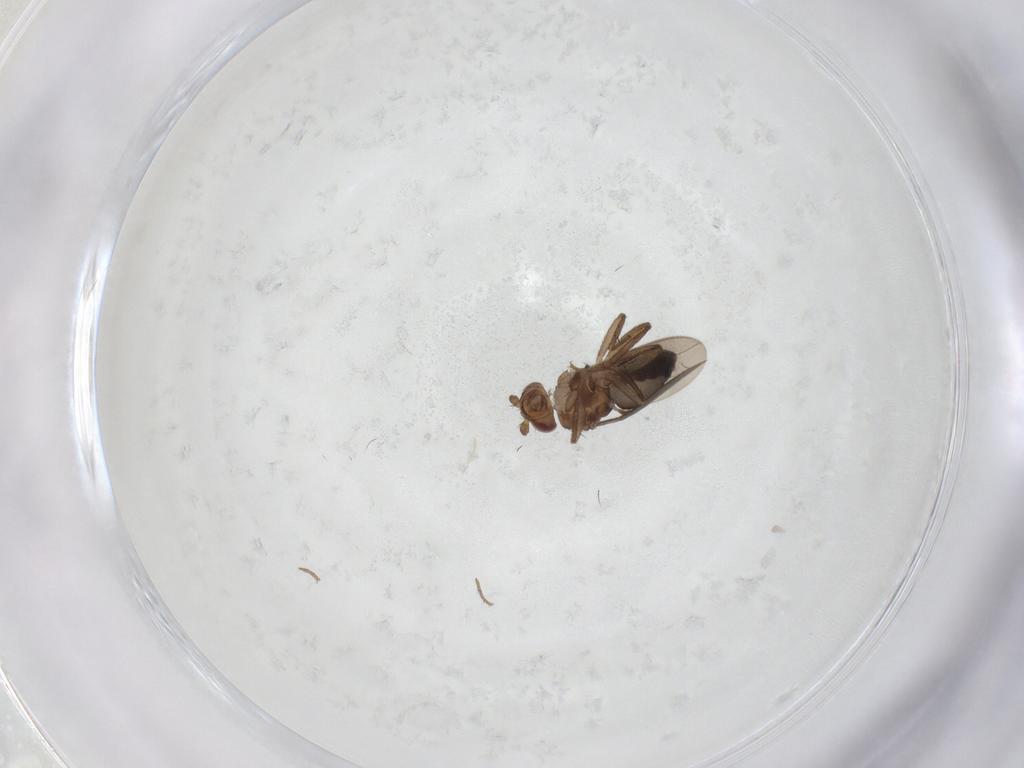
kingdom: Animalia
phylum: Arthropoda
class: Insecta
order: Diptera
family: Sphaeroceridae
